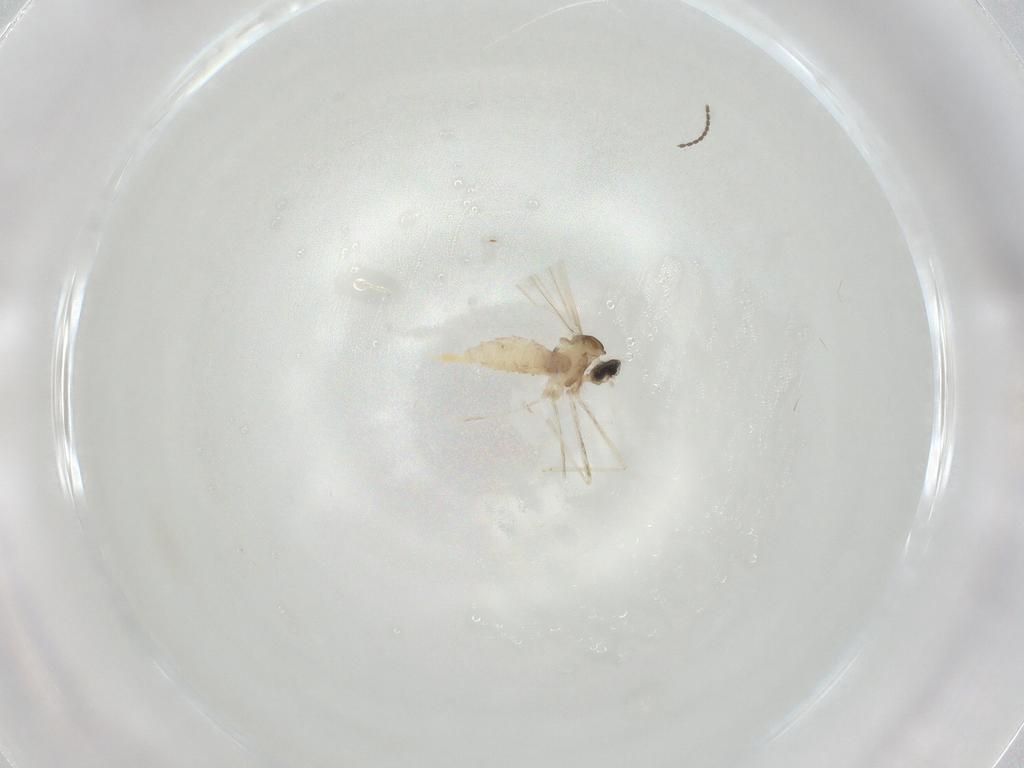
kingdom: Animalia
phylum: Arthropoda
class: Insecta
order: Diptera
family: Cecidomyiidae
